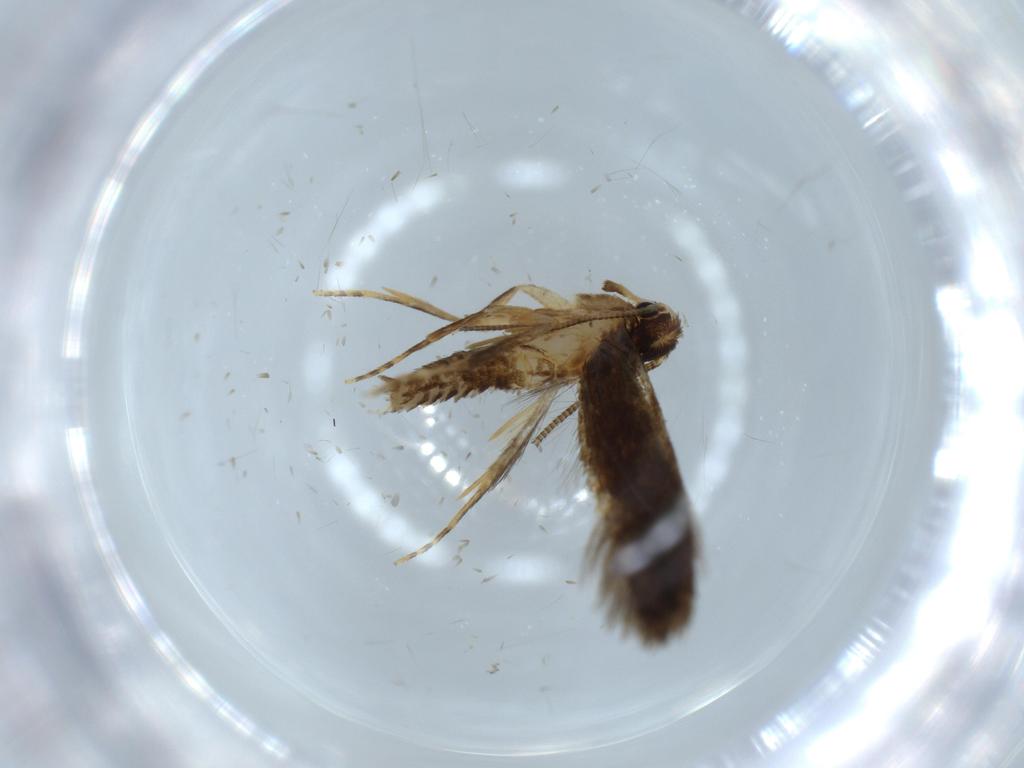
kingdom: Animalia
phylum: Arthropoda
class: Insecta
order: Lepidoptera
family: Tineidae
